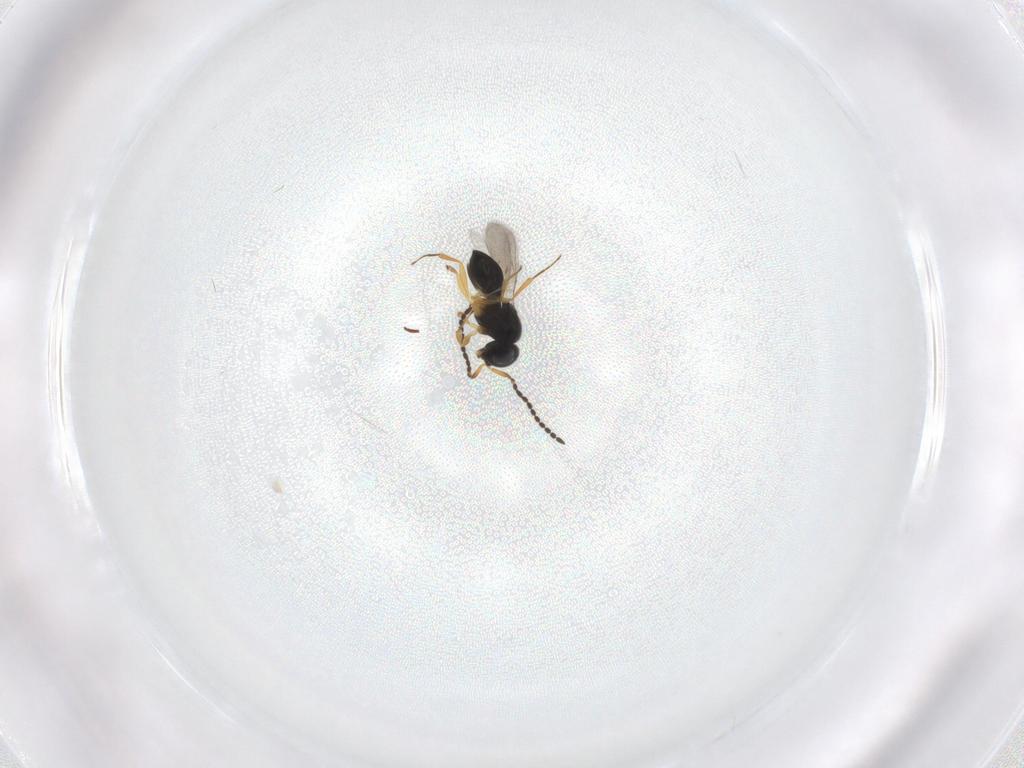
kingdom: Animalia
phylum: Arthropoda
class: Insecta
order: Hymenoptera
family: Scelionidae
